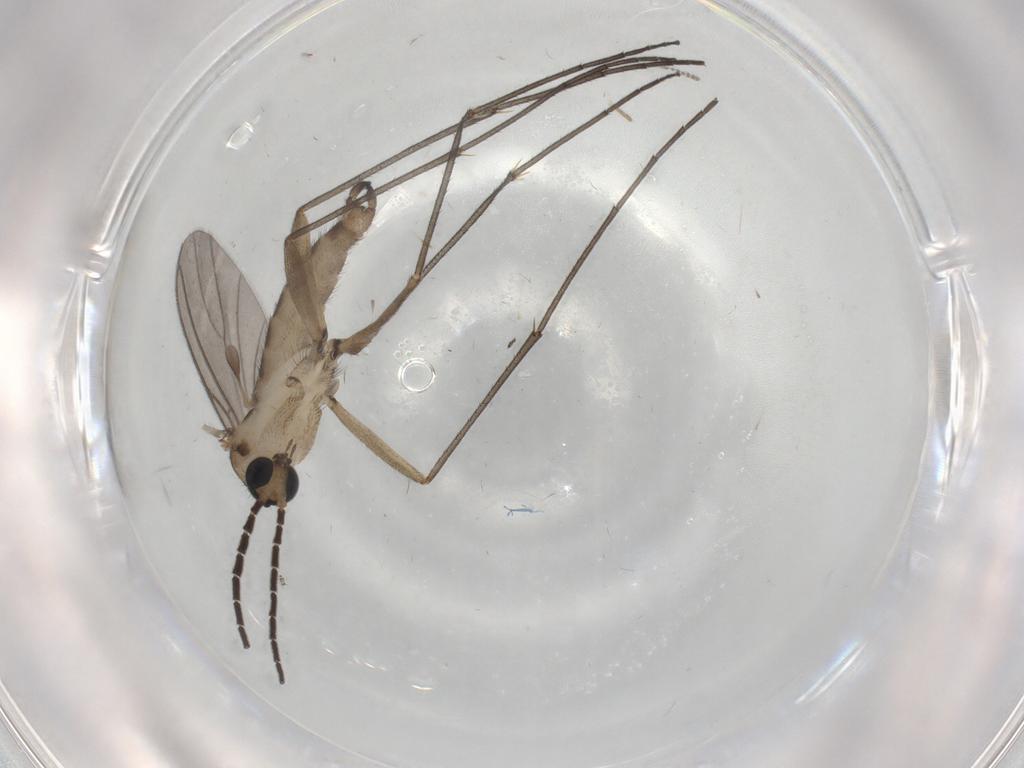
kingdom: Animalia
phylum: Arthropoda
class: Insecta
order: Diptera
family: Sciaridae
